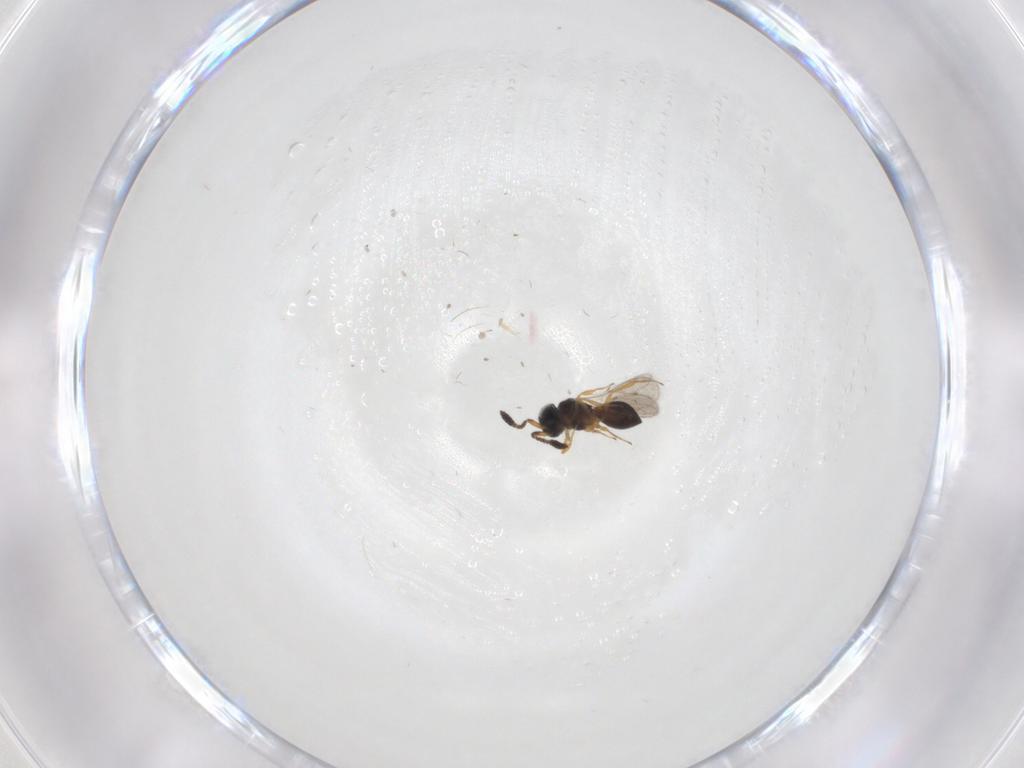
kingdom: Animalia
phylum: Arthropoda
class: Insecta
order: Hymenoptera
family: Scelionidae
